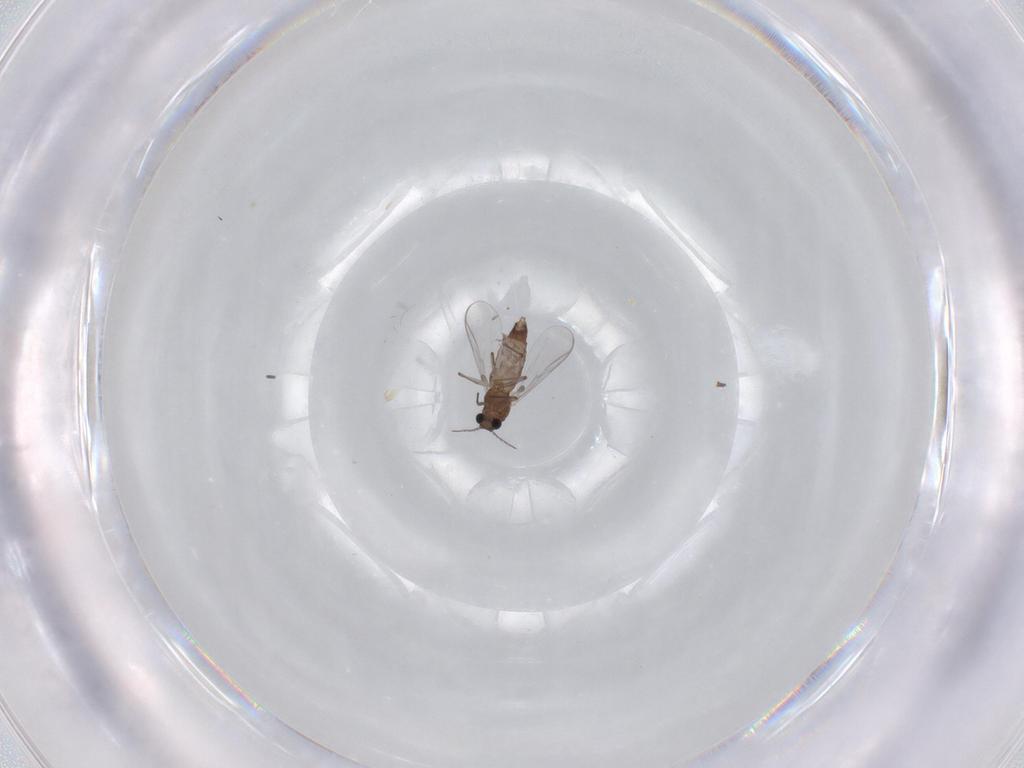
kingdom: Animalia
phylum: Arthropoda
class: Insecta
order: Diptera
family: Chironomidae
